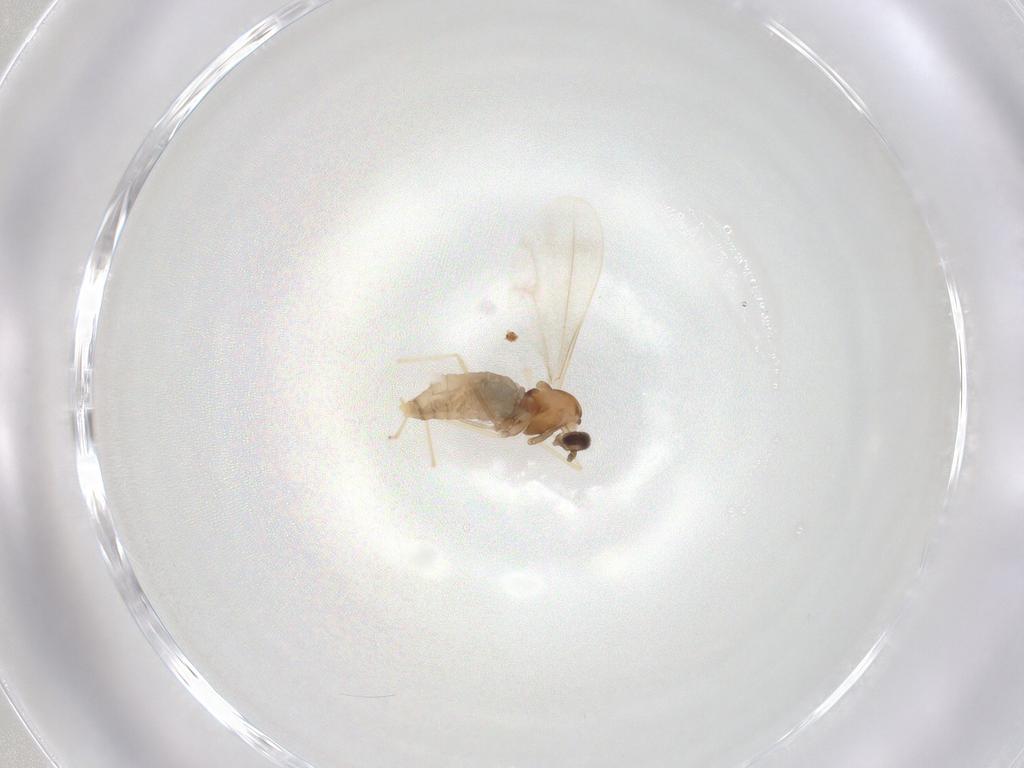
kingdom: Animalia
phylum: Arthropoda
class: Insecta
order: Diptera
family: Cecidomyiidae
